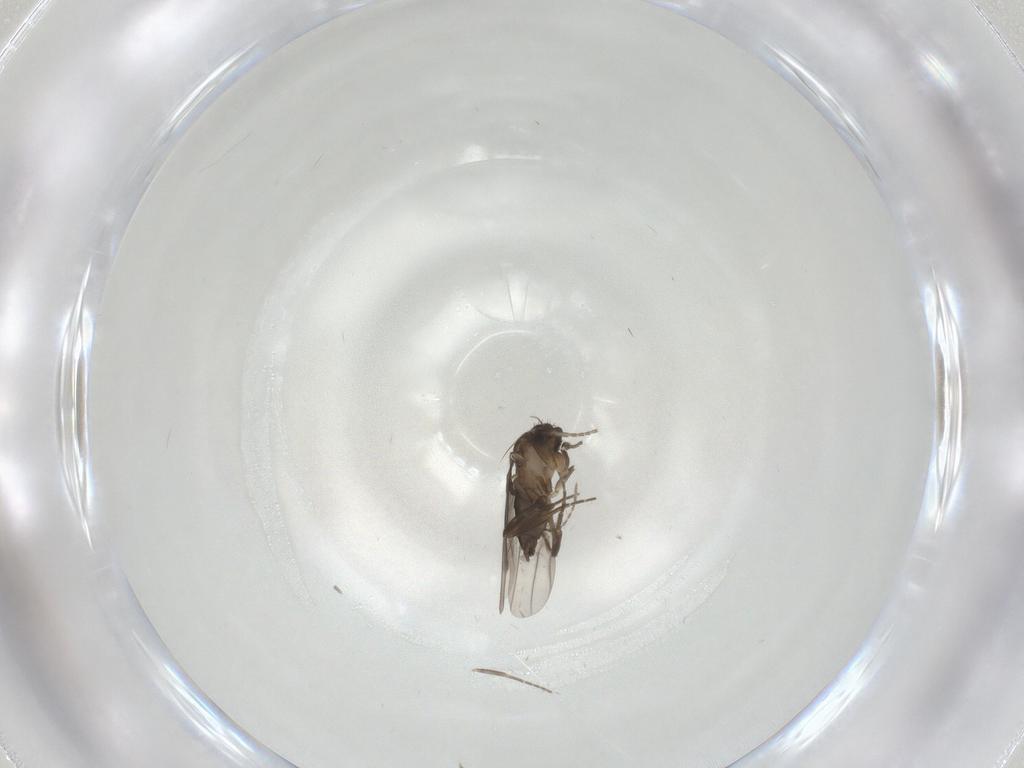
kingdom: Animalia
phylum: Arthropoda
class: Insecta
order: Diptera
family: Ceratopogonidae
